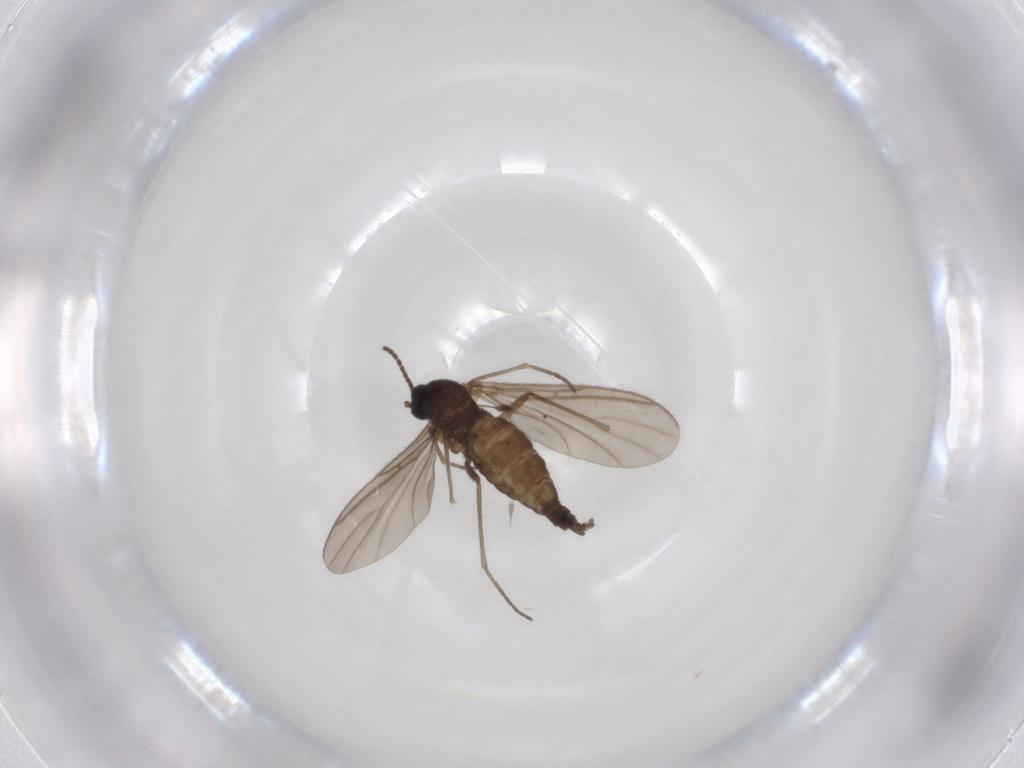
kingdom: Animalia
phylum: Arthropoda
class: Insecta
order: Diptera
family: Sciaridae
